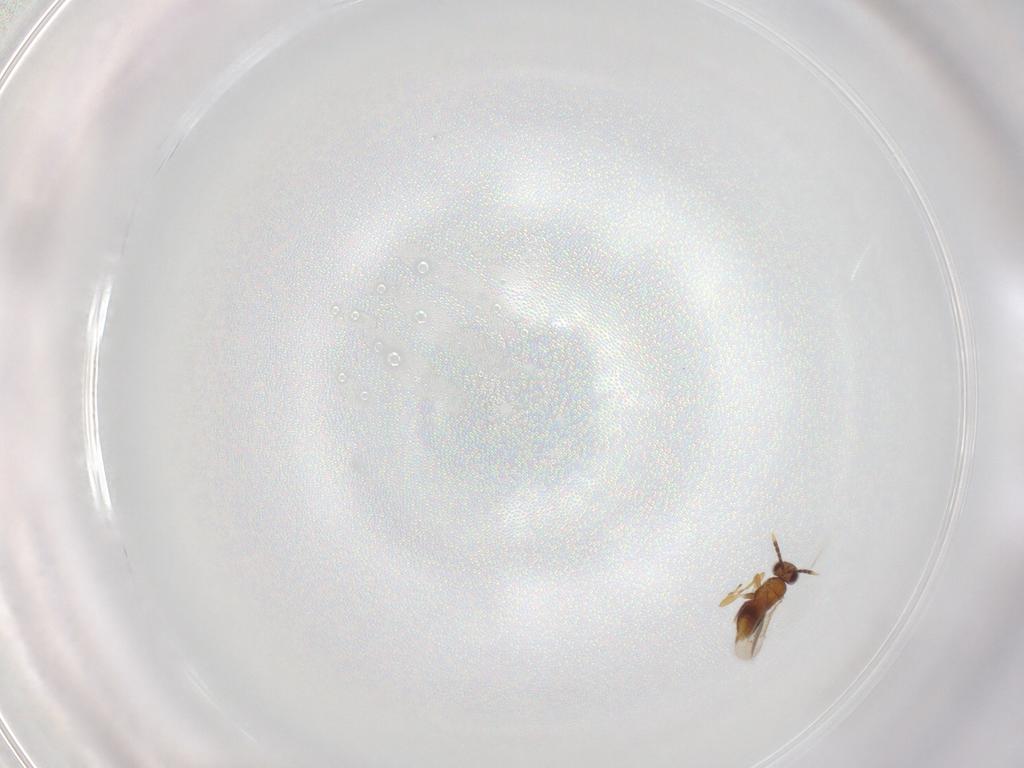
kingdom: Animalia
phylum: Arthropoda
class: Insecta
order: Hymenoptera
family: Aphelinidae
